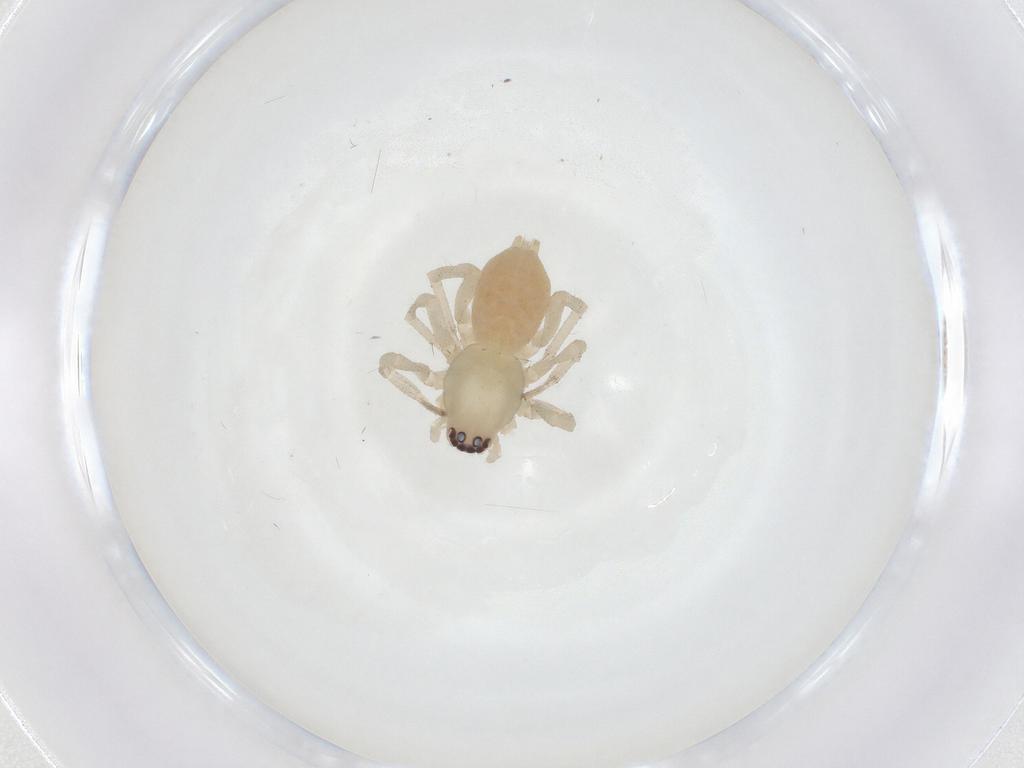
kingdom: Animalia
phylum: Arthropoda
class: Arachnida
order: Araneae
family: Clubionidae
